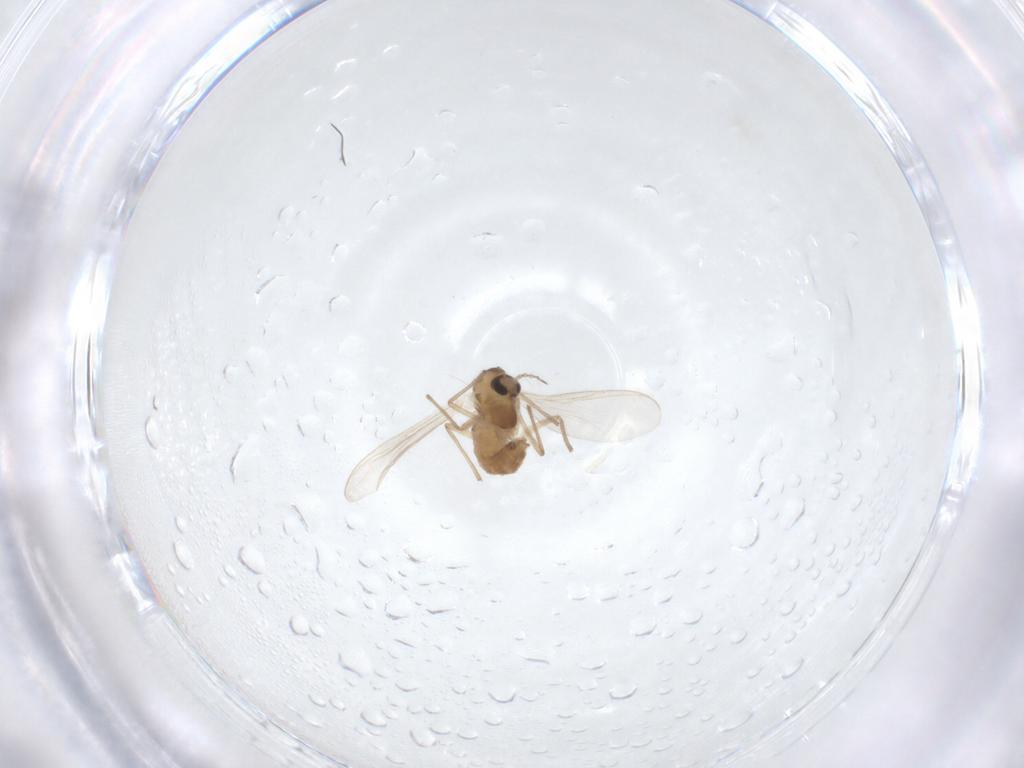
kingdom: Animalia
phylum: Arthropoda
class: Insecta
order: Diptera
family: Chironomidae
